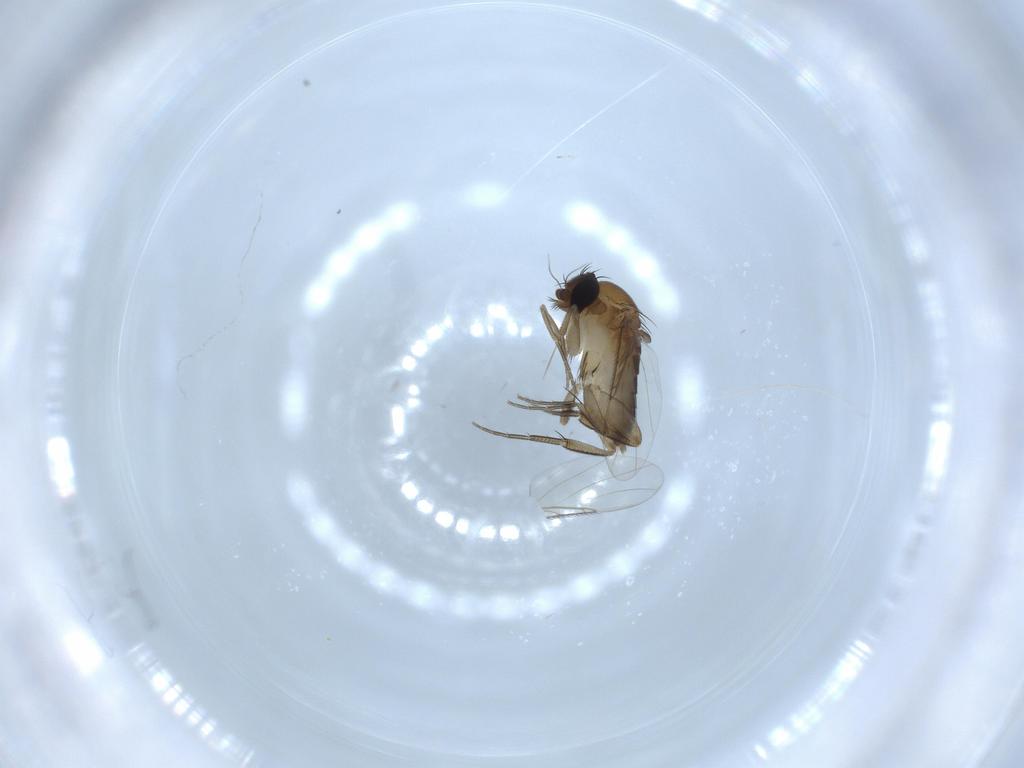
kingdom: Animalia
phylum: Arthropoda
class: Insecta
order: Diptera
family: Phoridae
